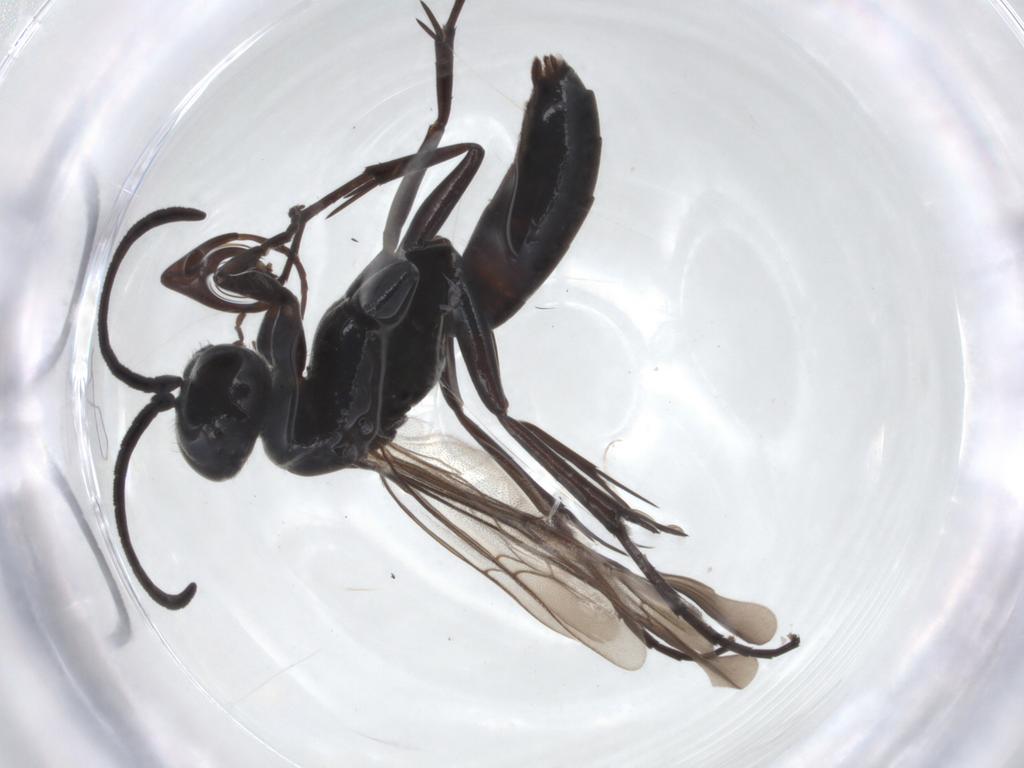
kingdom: Animalia
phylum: Arthropoda
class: Insecta
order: Hymenoptera
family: Pompilidae
